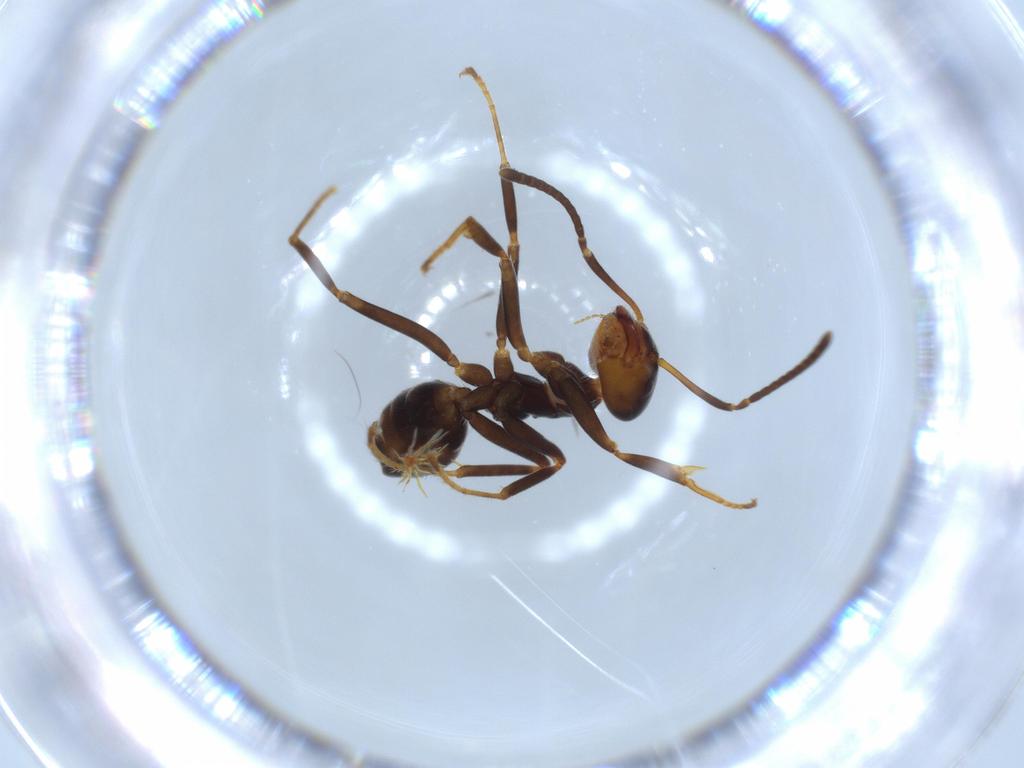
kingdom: Animalia
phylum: Arthropoda
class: Insecta
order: Hymenoptera
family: Formicidae
